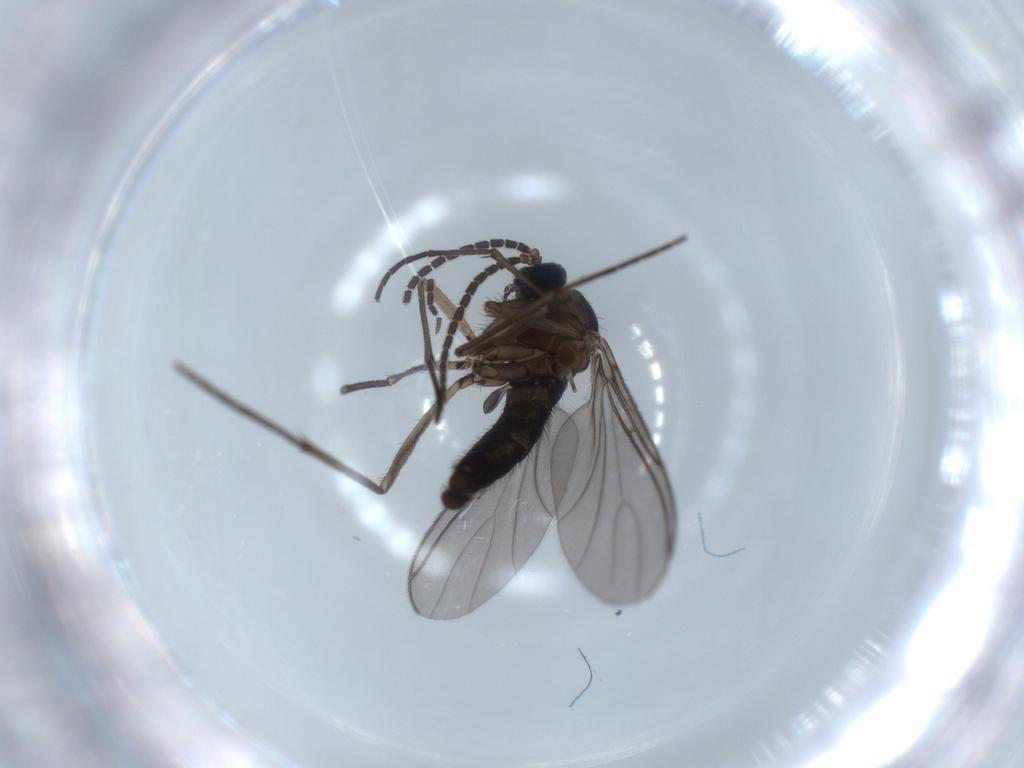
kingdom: Animalia
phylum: Arthropoda
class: Insecta
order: Diptera
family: Sciaridae
